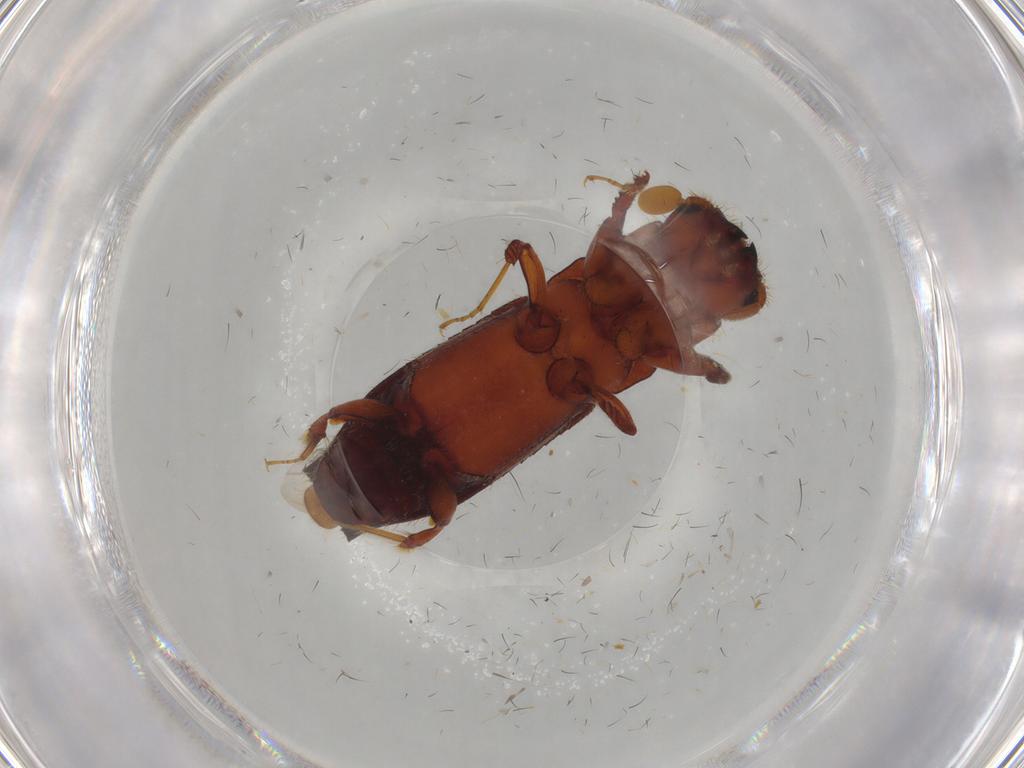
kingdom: Animalia
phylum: Arthropoda
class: Insecta
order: Coleoptera
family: Curculionidae
